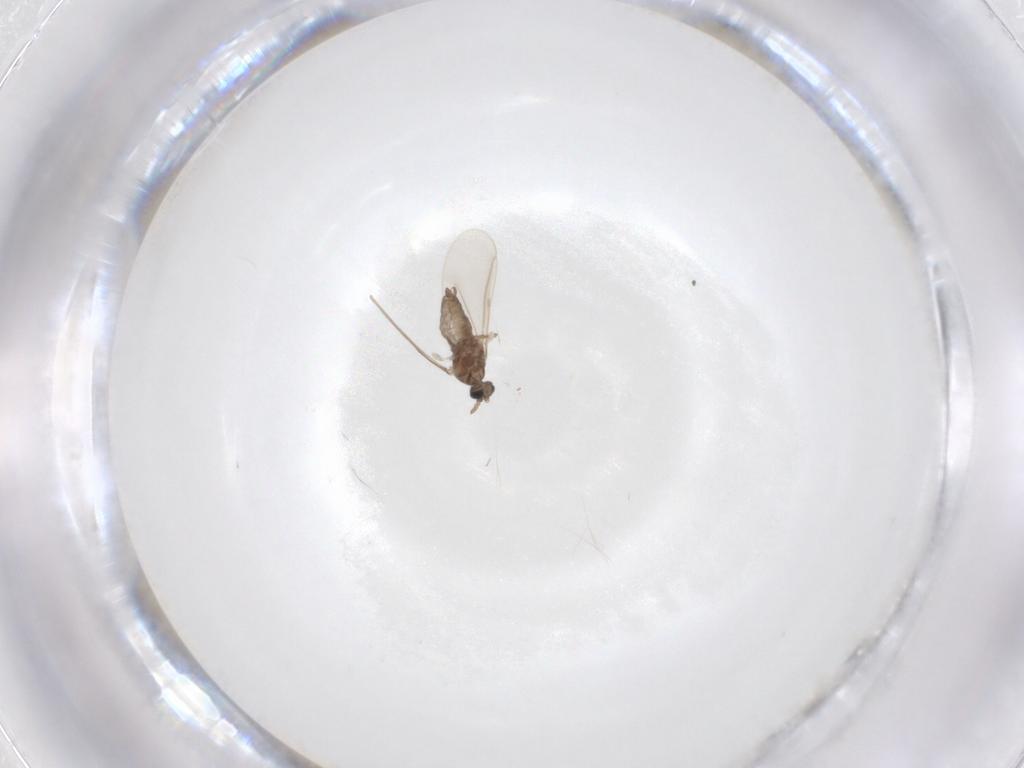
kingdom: Animalia
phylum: Arthropoda
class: Insecta
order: Diptera
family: Cecidomyiidae
